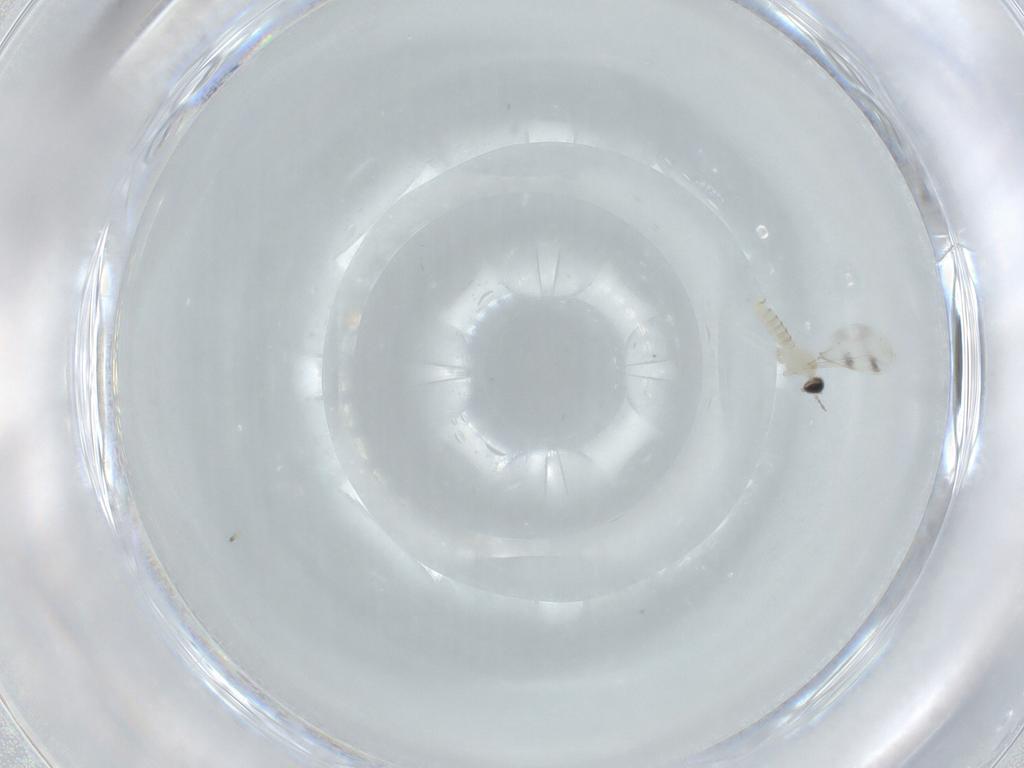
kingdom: Animalia
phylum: Arthropoda
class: Insecta
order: Diptera
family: Cecidomyiidae
